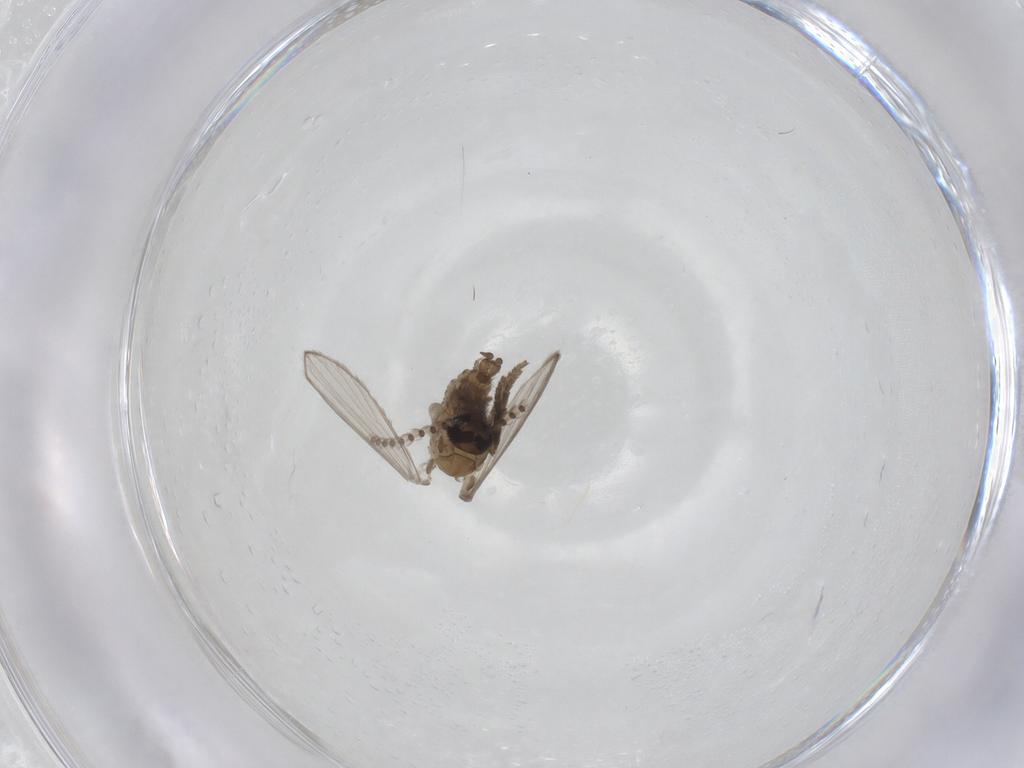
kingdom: Animalia
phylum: Arthropoda
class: Insecta
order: Diptera
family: Psychodidae
